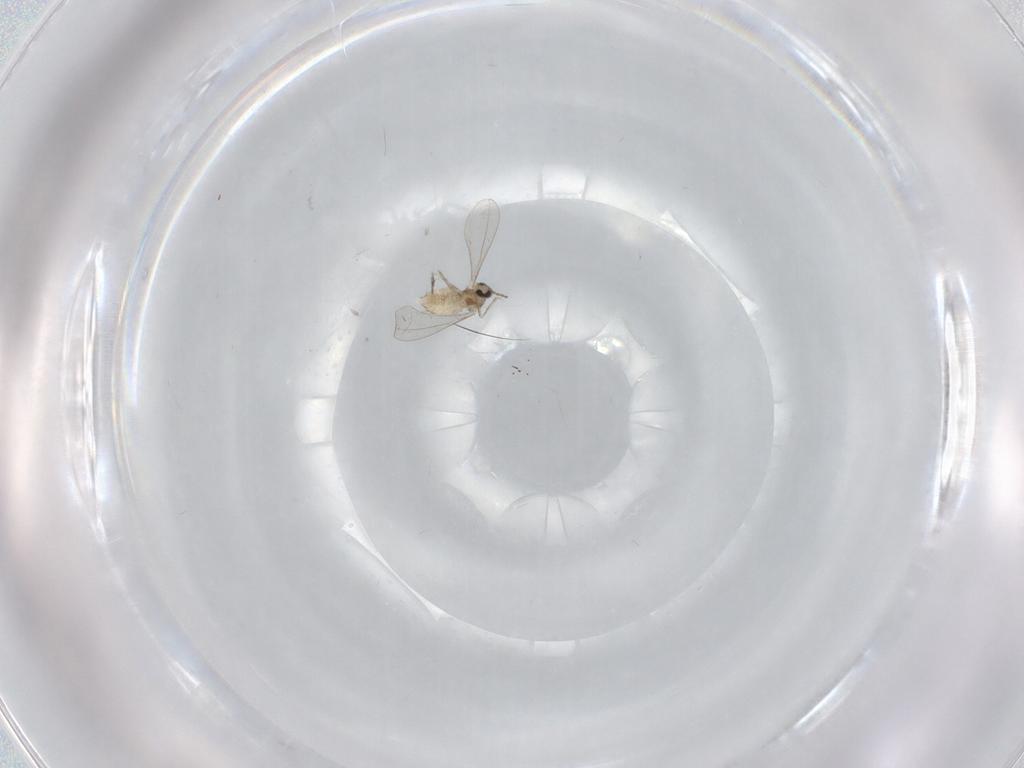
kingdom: Animalia
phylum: Arthropoda
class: Insecta
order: Diptera
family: Cecidomyiidae
